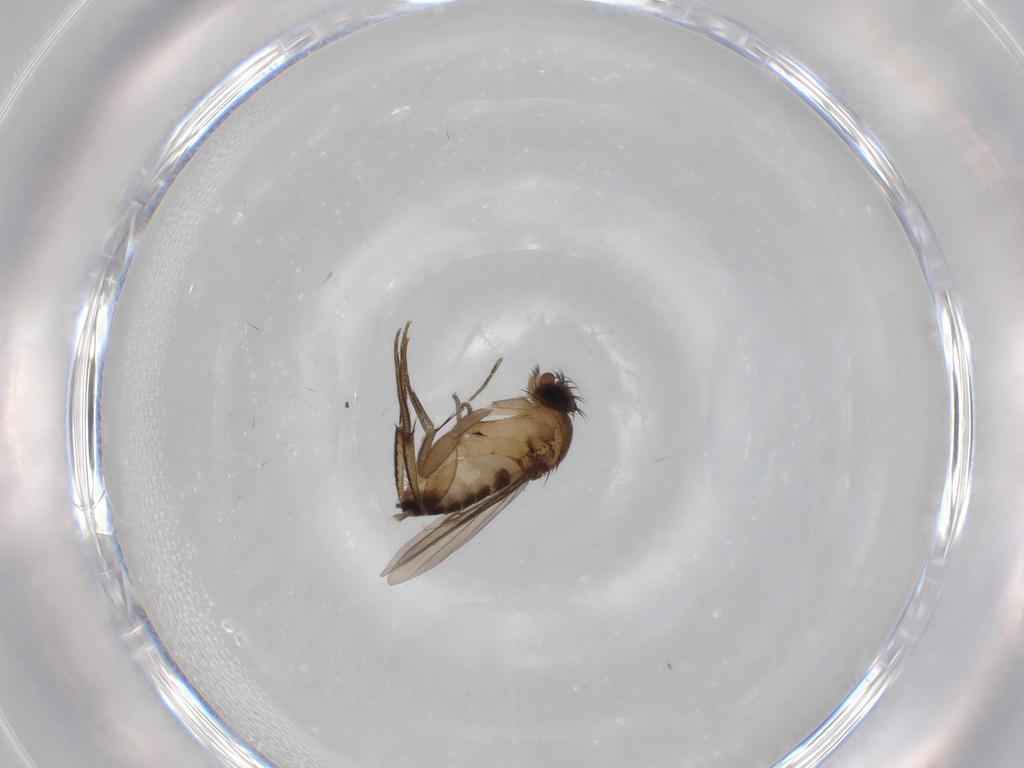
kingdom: Animalia
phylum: Arthropoda
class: Insecta
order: Diptera
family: Phoridae
